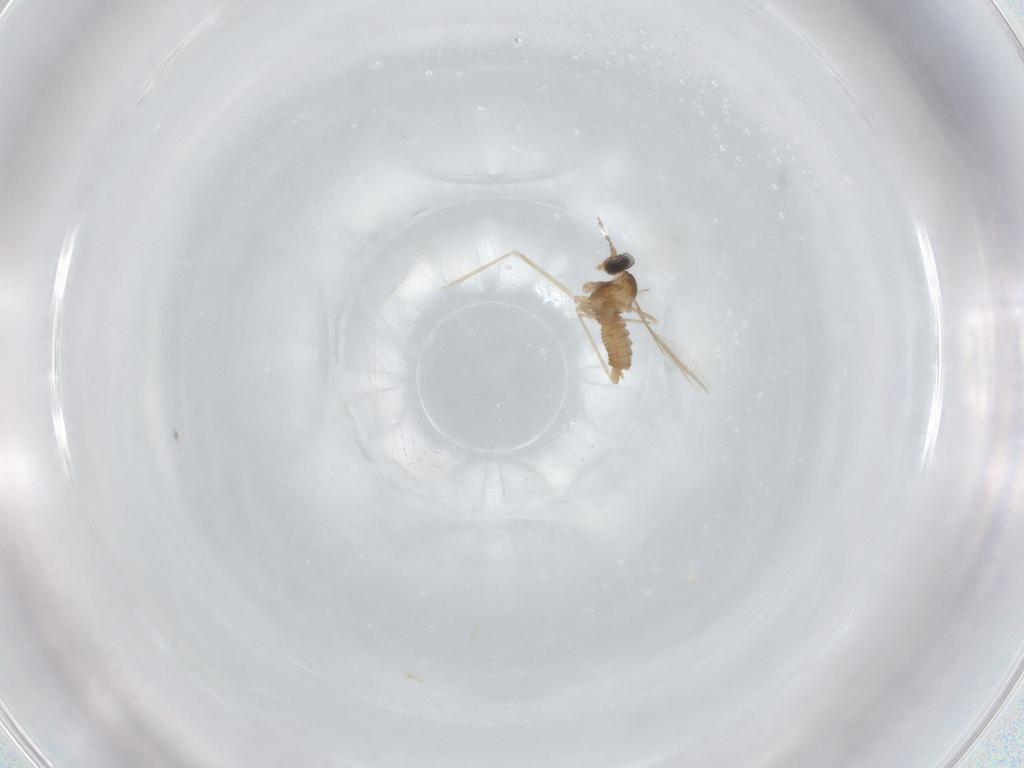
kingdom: Animalia
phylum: Arthropoda
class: Insecta
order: Diptera
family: Cecidomyiidae
